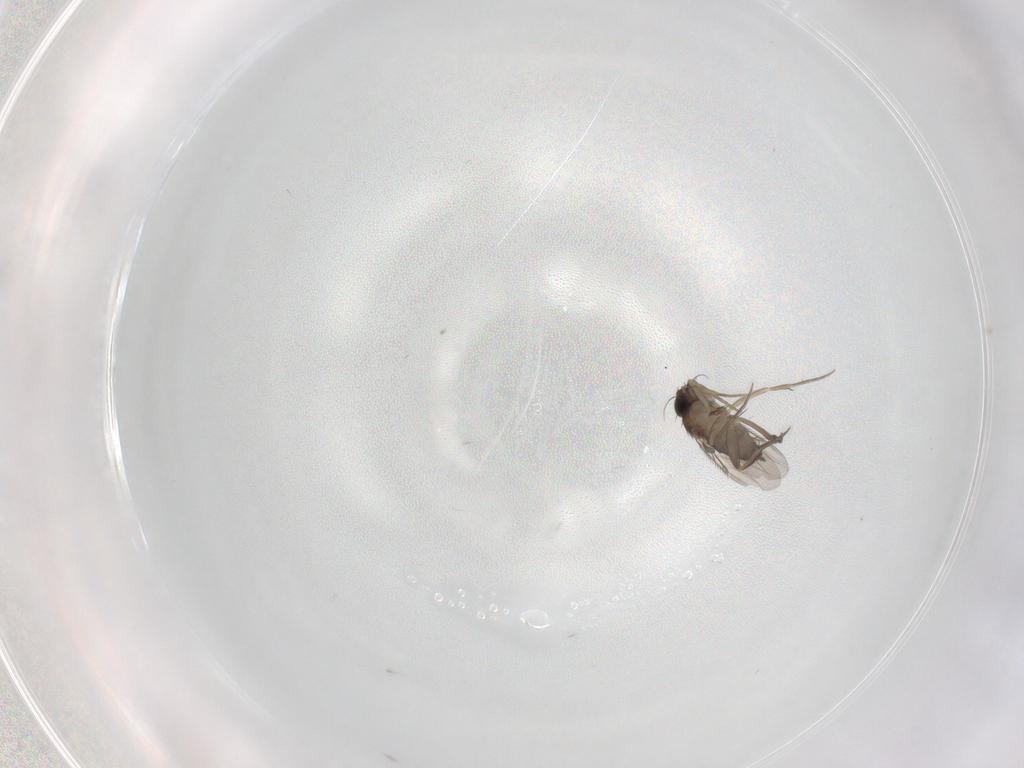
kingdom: Animalia
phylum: Arthropoda
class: Insecta
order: Diptera
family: Phoridae
